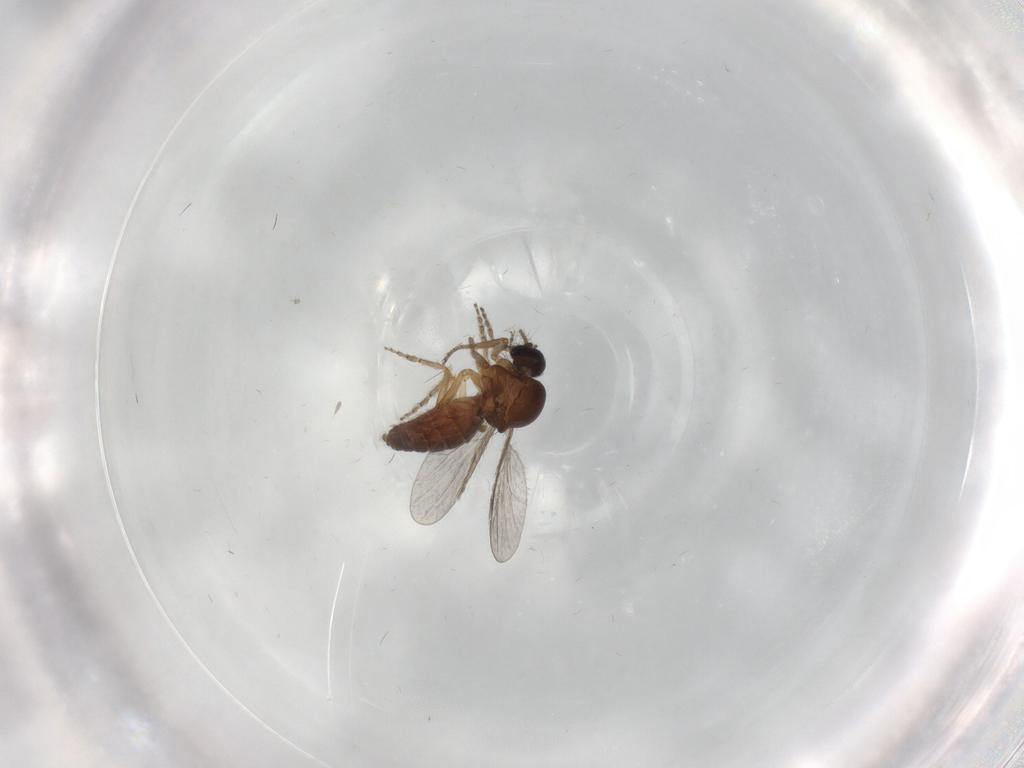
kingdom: Animalia
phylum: Arthropoda
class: Insecta
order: Diptera
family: Ceratopogonidae
